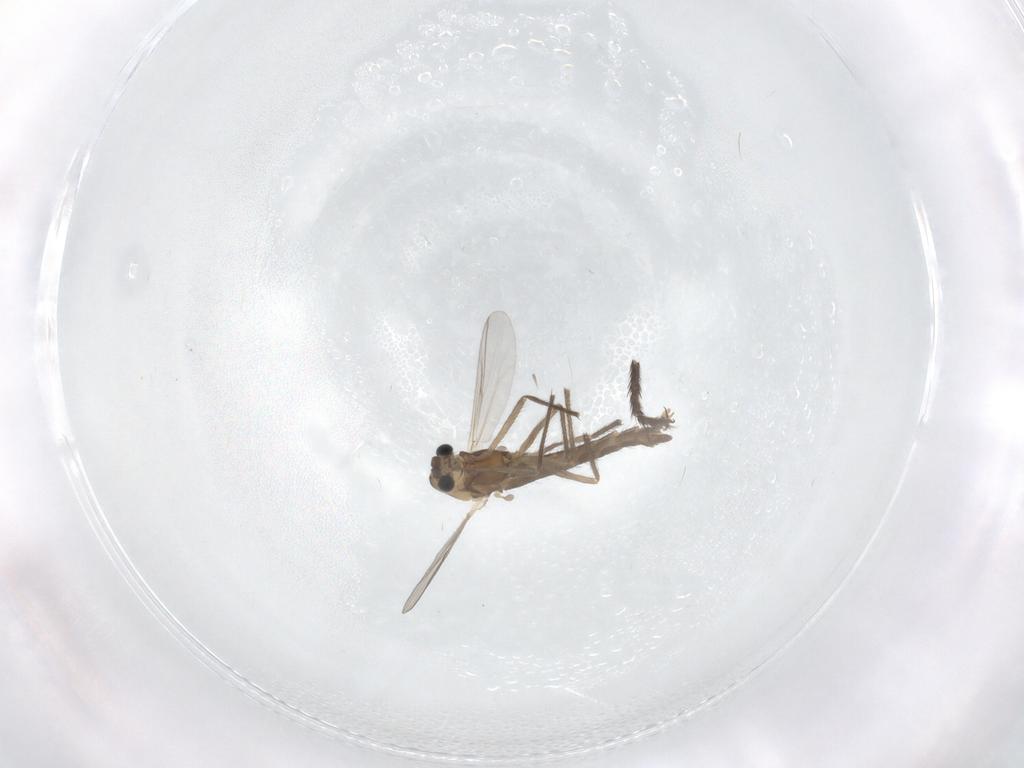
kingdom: Animalia
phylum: Arthropoda
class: Insecta
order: Diptera
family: Chironomidae
